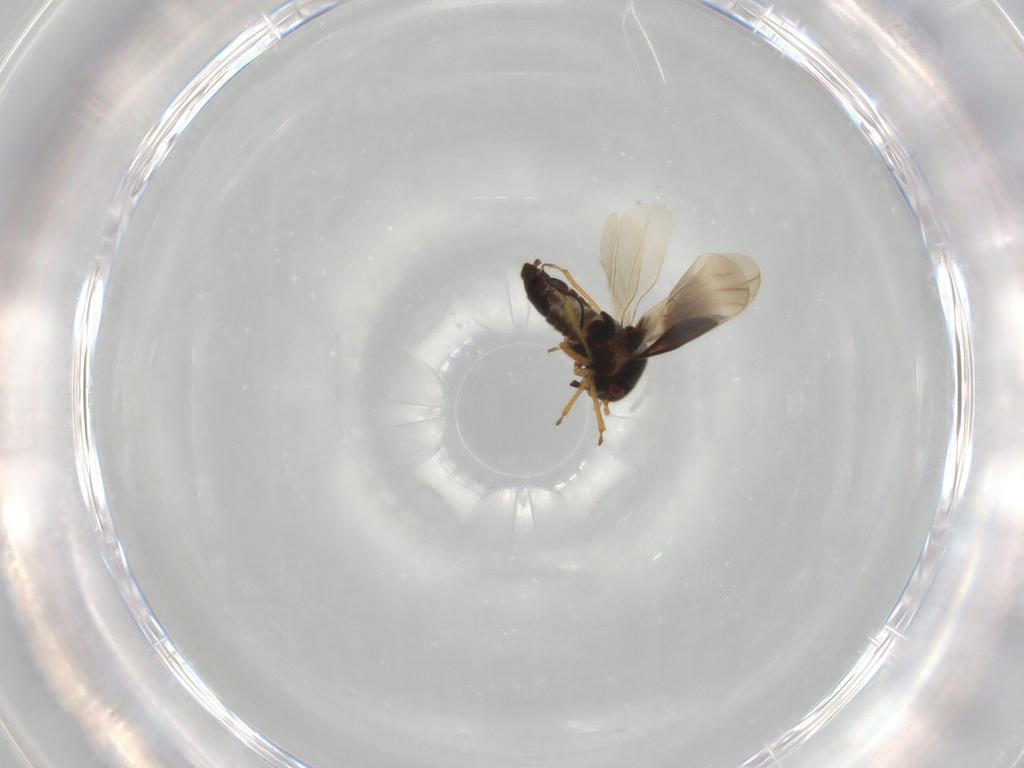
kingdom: Animalia
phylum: Arthropoda
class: Insecta
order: Hemiptera
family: Schizopteridae
